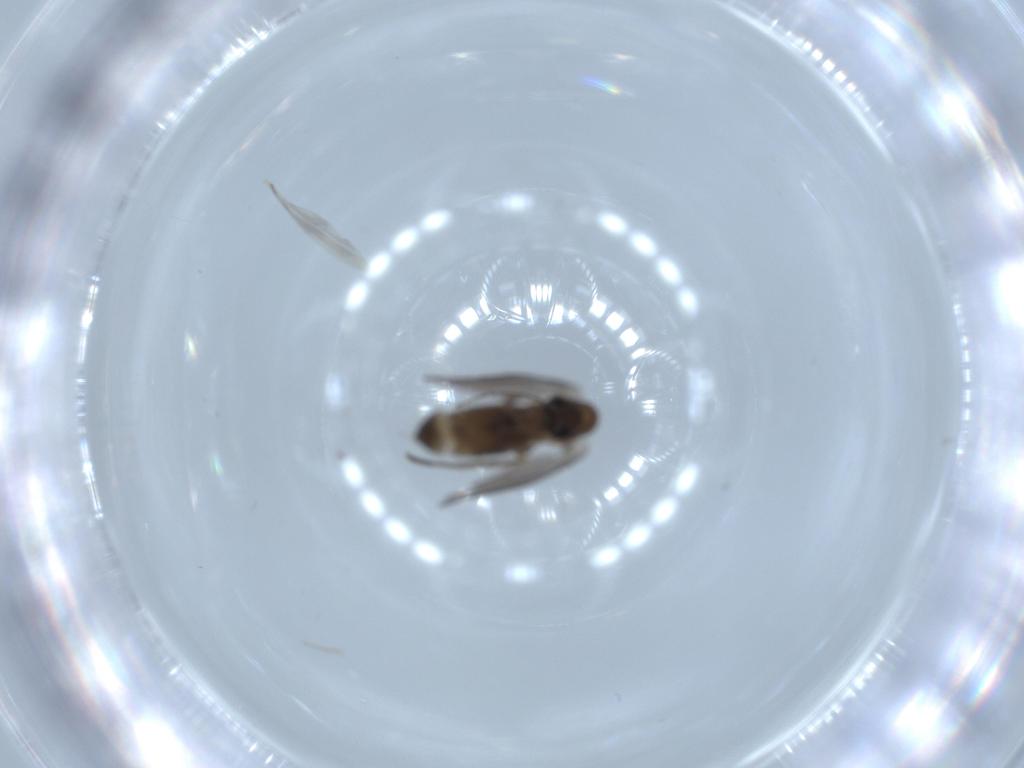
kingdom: Animalia
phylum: Arthropoda
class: Insecta
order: Diptera
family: Psychodidae
